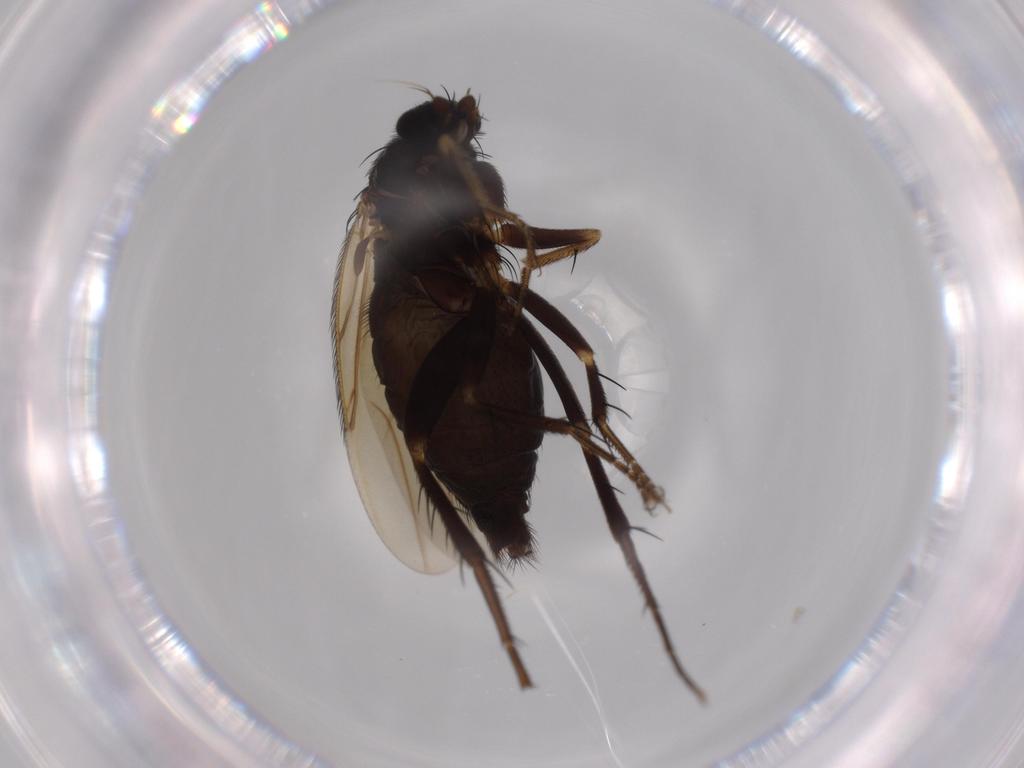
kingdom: Animalia
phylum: Arthropoda
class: Insecta
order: Diptera
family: Phoridae
